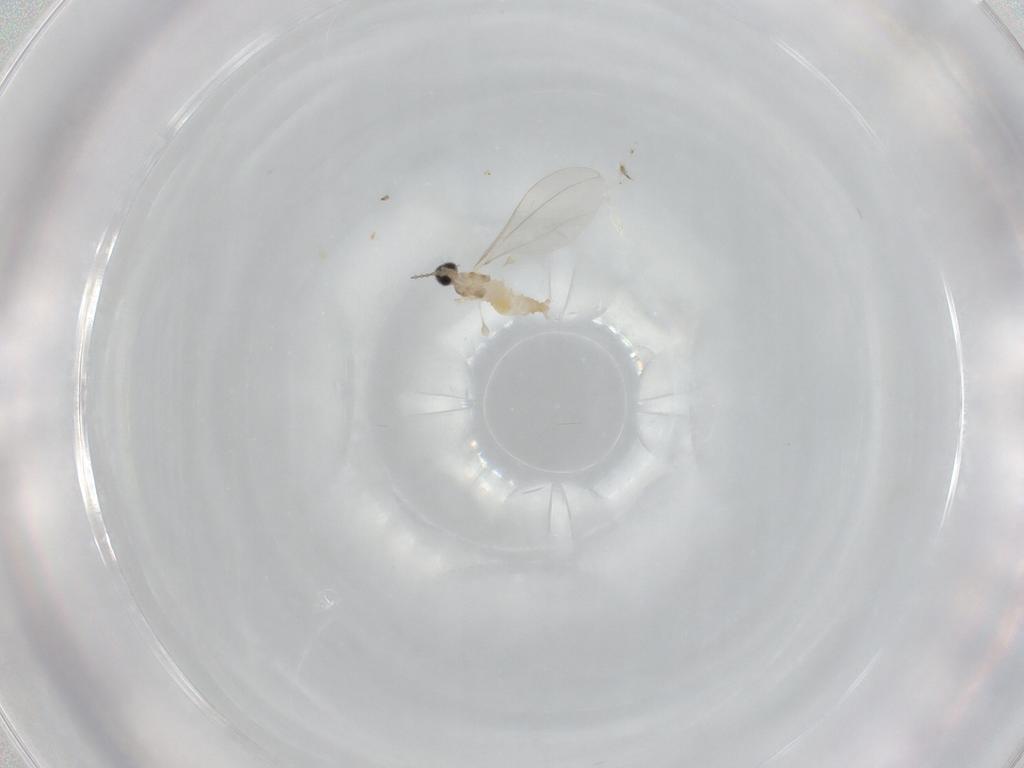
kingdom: Animalia
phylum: Arthropoda
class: Insecta
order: Diptera
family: Cecidomyiidae
